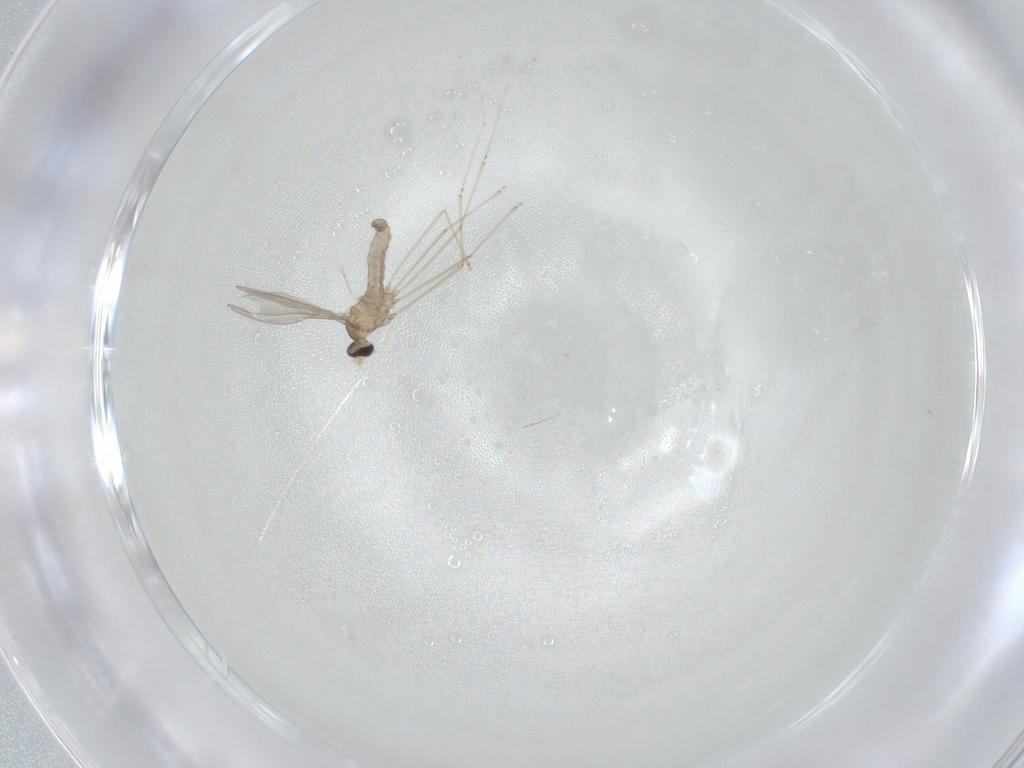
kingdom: Animalia
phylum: Arthropoda
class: Insecta
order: Diptera
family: Cecidomyiidae
